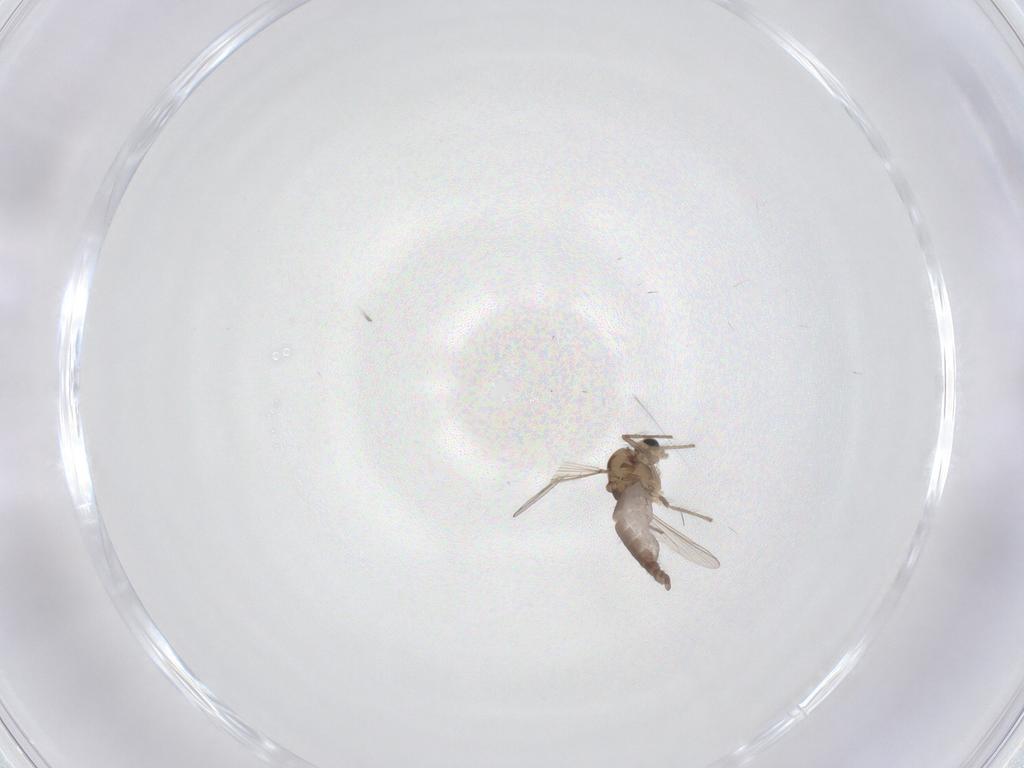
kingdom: Animalia
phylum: Arthropoda
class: Insecta
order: Diptera
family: Chironomidae
